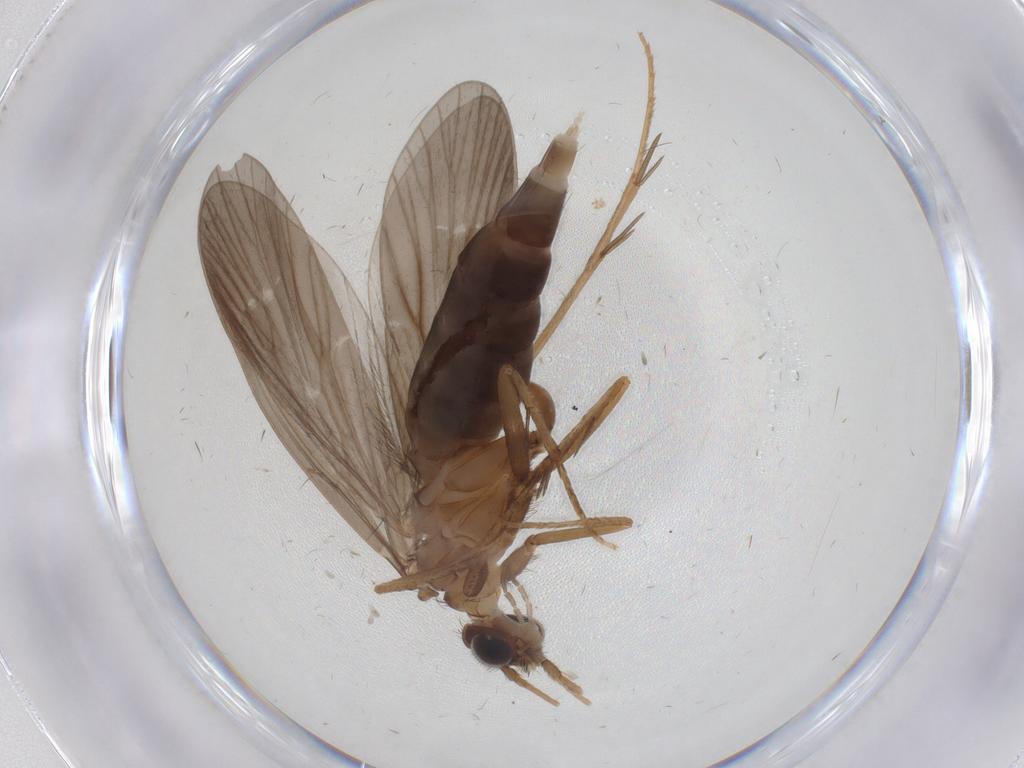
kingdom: Animalia
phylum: Arthropoda
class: Insecta
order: Trichoptera
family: Philopotamidae
